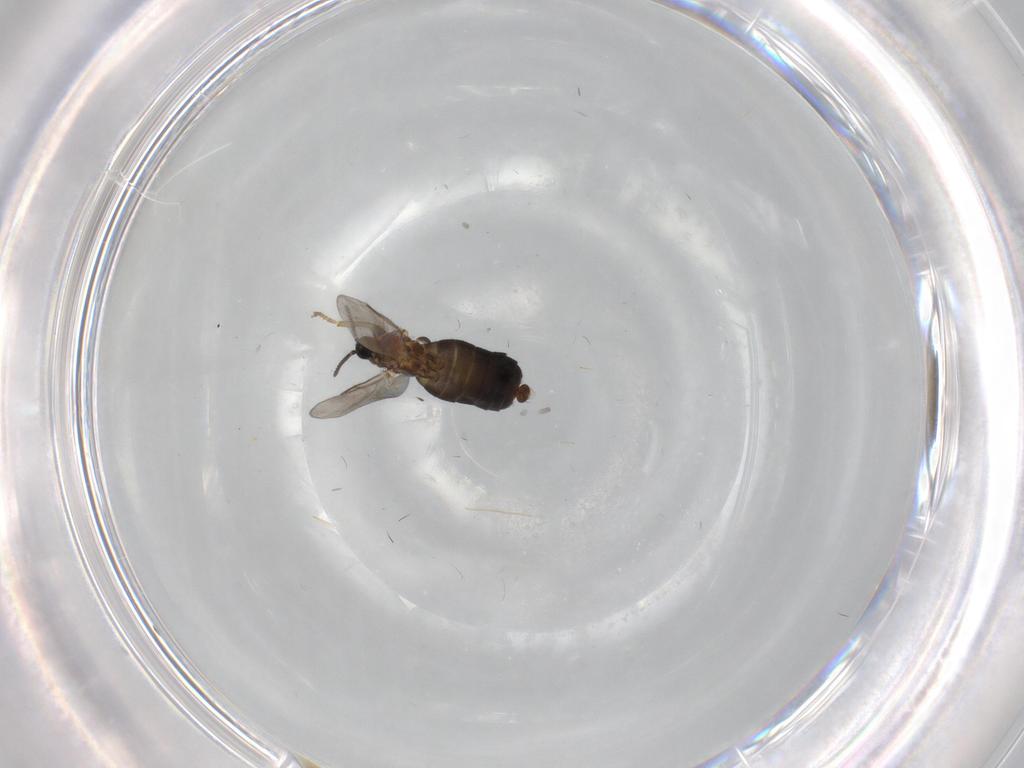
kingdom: Animalia
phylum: Arthropoda
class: Insecta
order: Diptera
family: Scatopsidae
